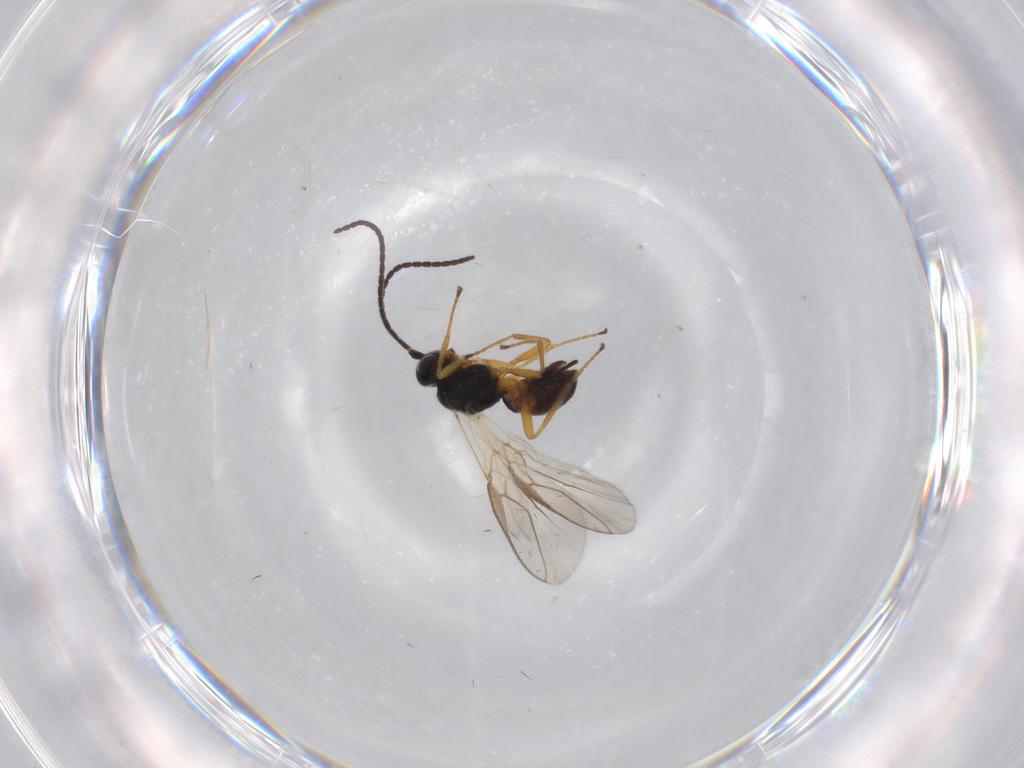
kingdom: Animalia
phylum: Arthropoda
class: Insecta
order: Hymenoptera
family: Braconidae
